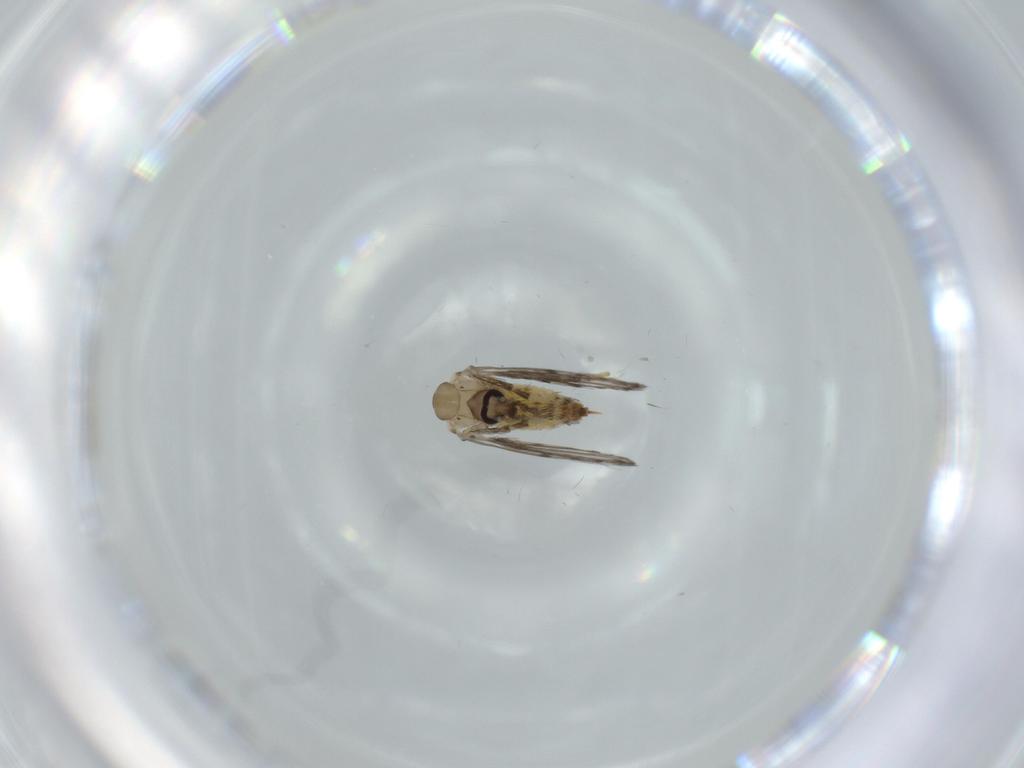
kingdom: Animalia
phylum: Arthropoda
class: Insecta
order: Diptera
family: Psychodidae
